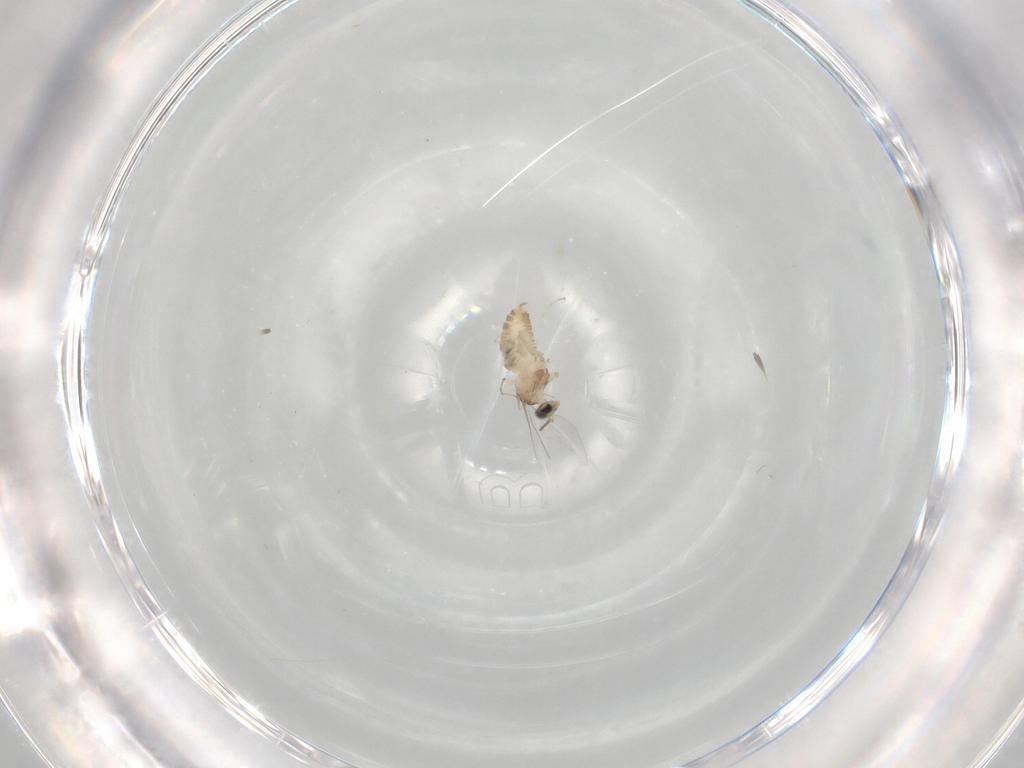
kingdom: Animalia
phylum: Arthropoda
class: Insecta
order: Diptera
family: Cecidomyiidae
